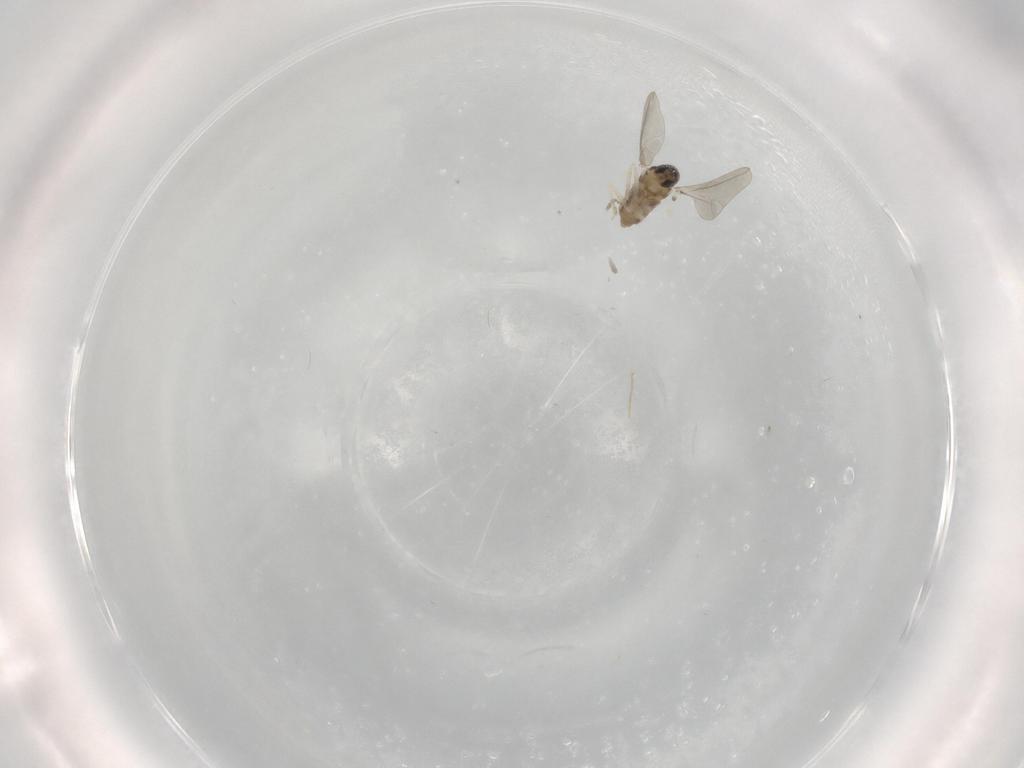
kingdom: Animalia
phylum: Arthropoda
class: Insecta
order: Diptera
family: Cecidomyiidae
